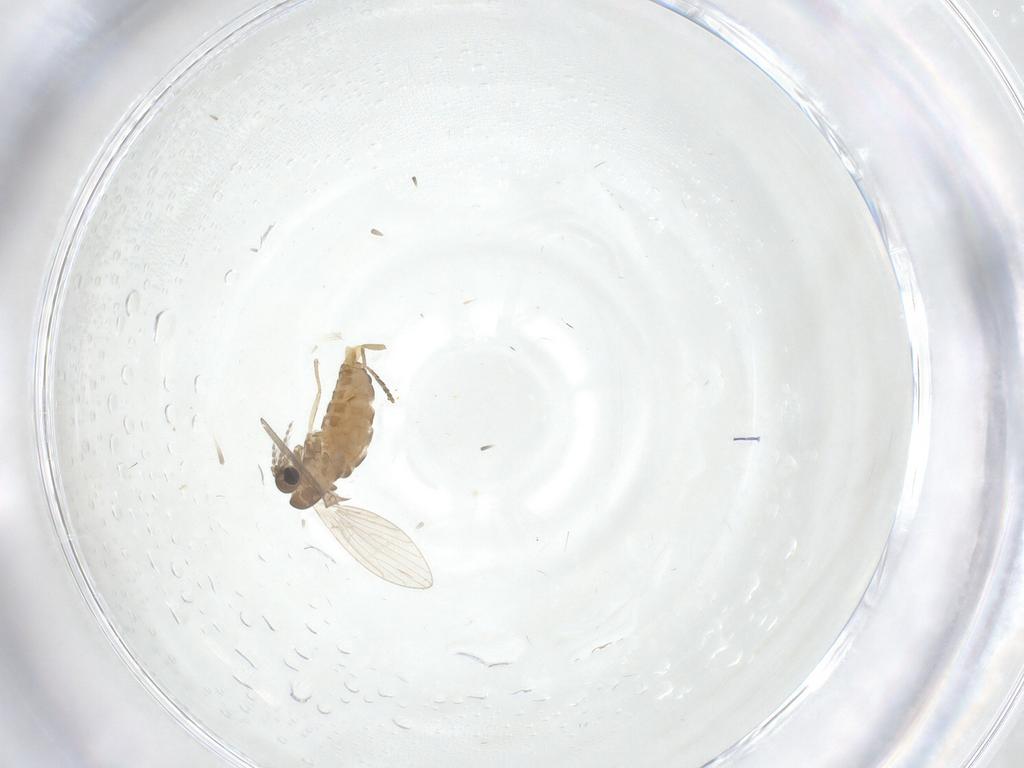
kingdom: Animalia
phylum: Arthropoda
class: Insecta
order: Diptera
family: Psychodidae
